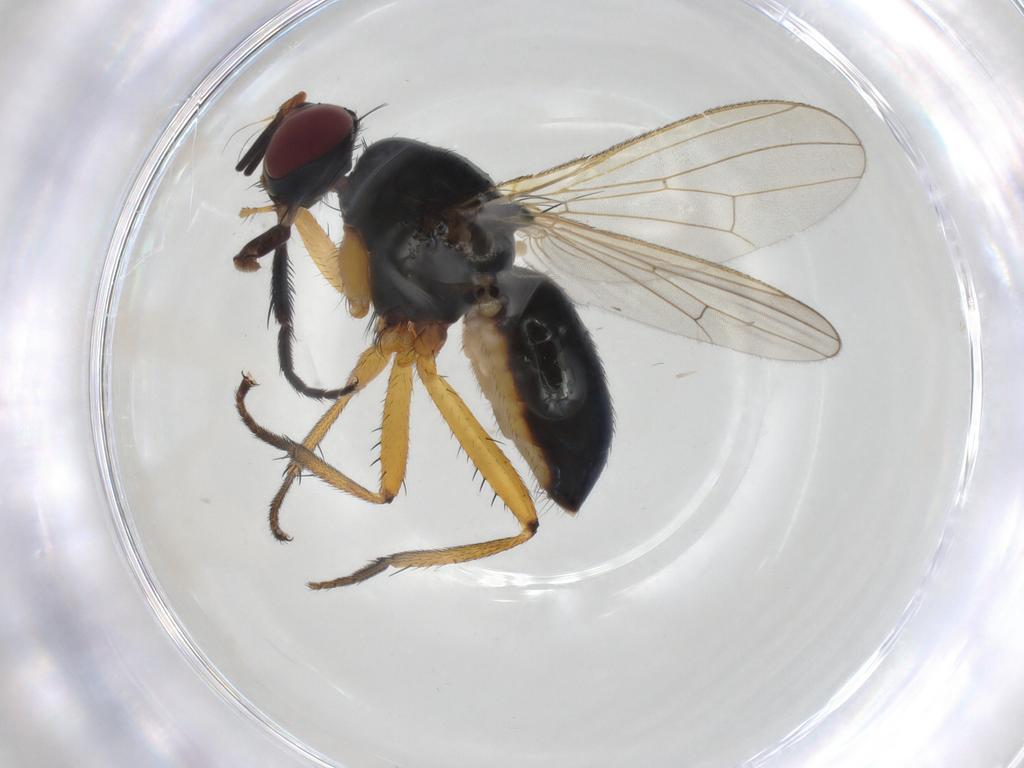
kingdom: Animalia
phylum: Arthropoda
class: Insecta
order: Diptera
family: Muscidae
